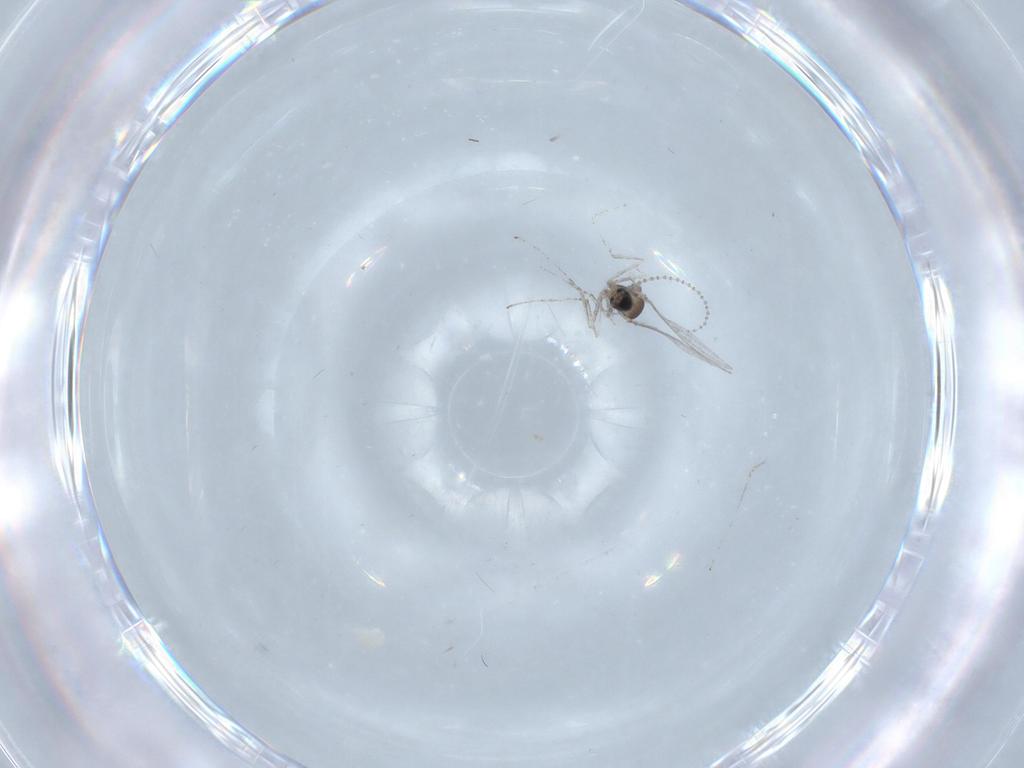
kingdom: Animalia
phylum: Arthropoda
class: Insecta
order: Diptera
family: Cecidomyiidae
